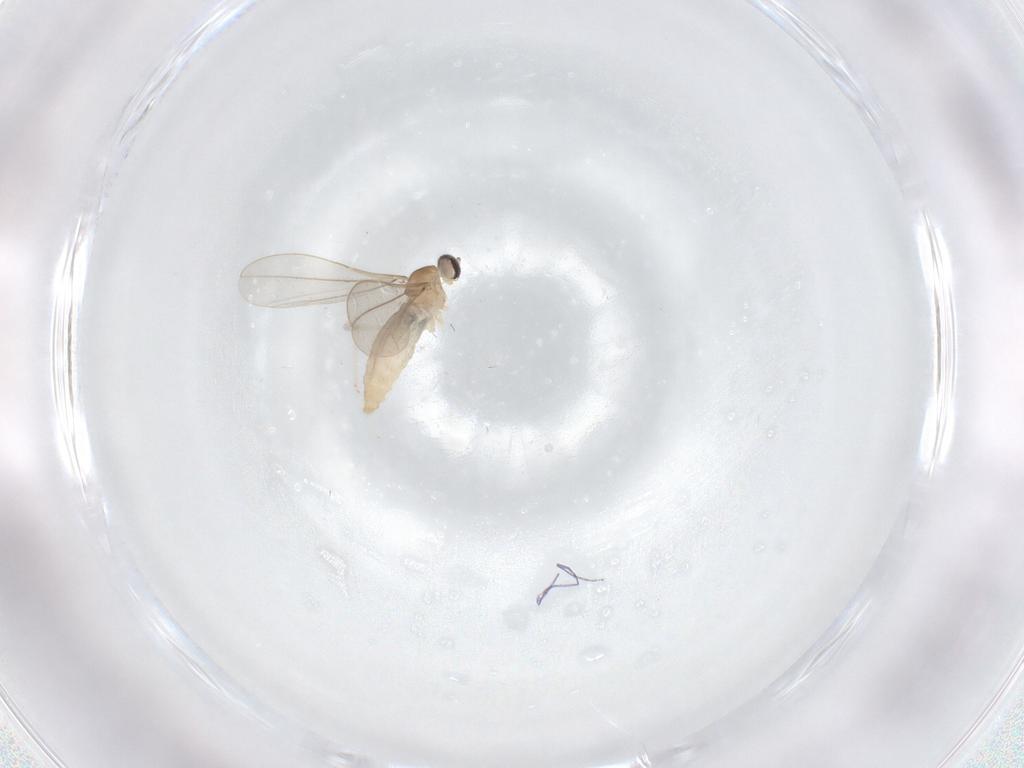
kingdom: Animalia
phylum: Arthropoda
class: Insecta
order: Diptera
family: Cecidomyiidae
